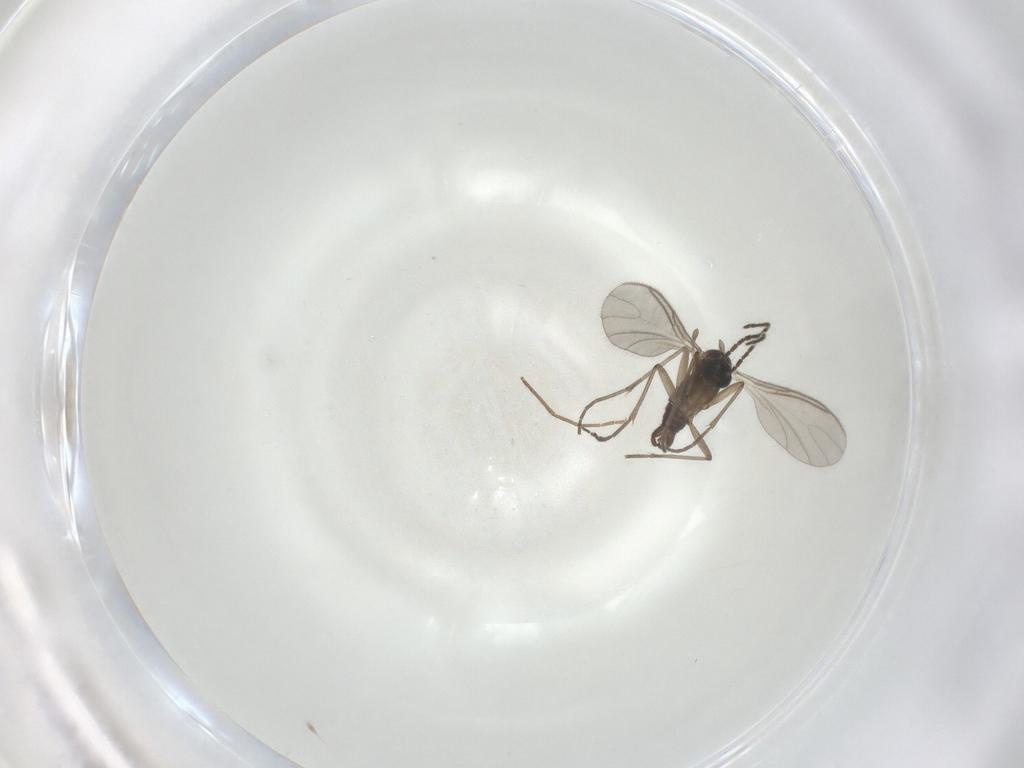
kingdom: Animalia
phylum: Arthropoda
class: Insecta
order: Diptera
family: Sciaridae
